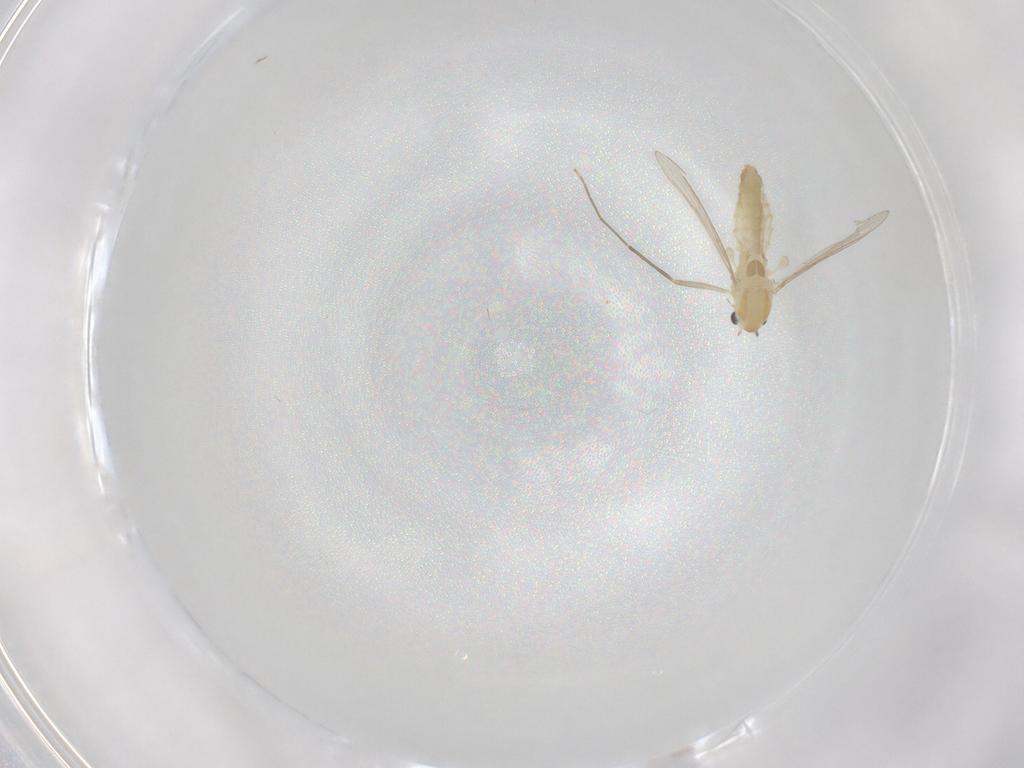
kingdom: Animalia
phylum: Arthropoda
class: Insecta
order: Diptera
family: Chironomidae
